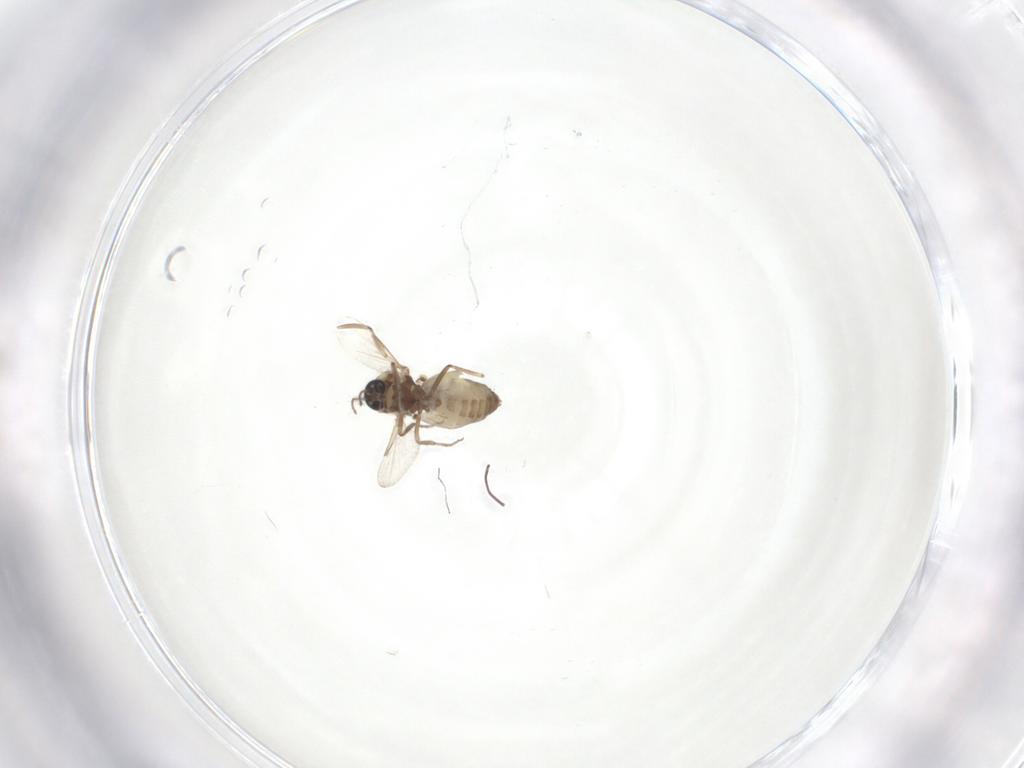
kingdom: Animalia
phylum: Arthropoda
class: Insecta
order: Diptera
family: Ceratopogonidae
